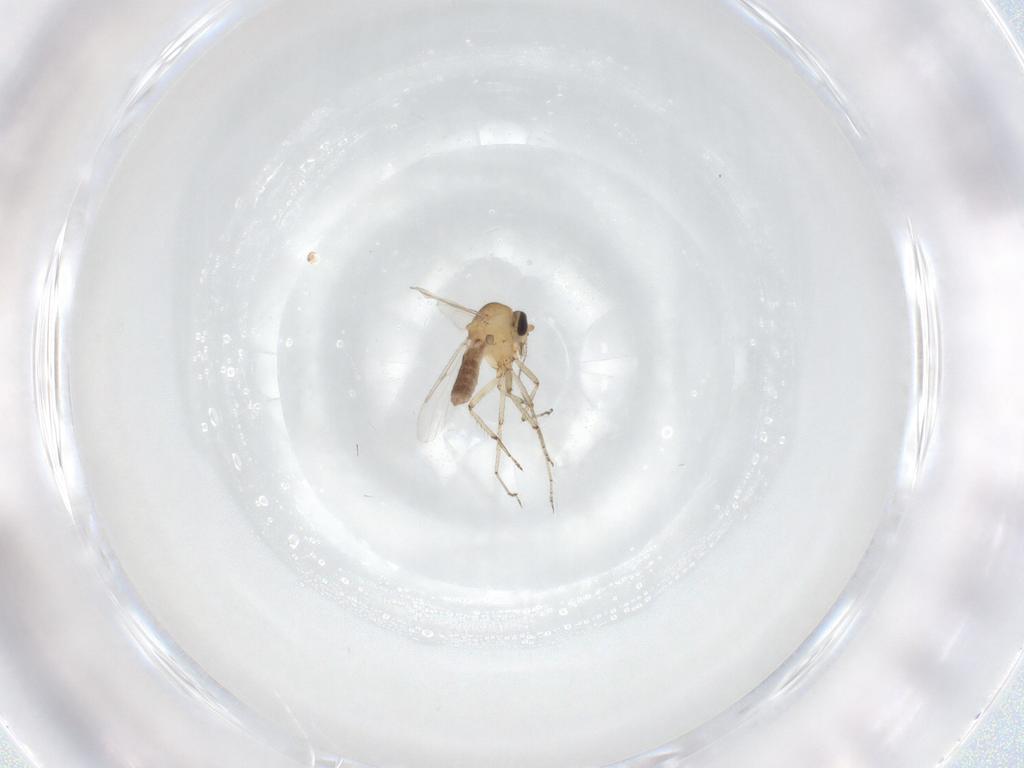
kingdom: Animalia
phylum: Arthropoda
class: Insecta
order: Diptera
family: Ceratopogonidae
